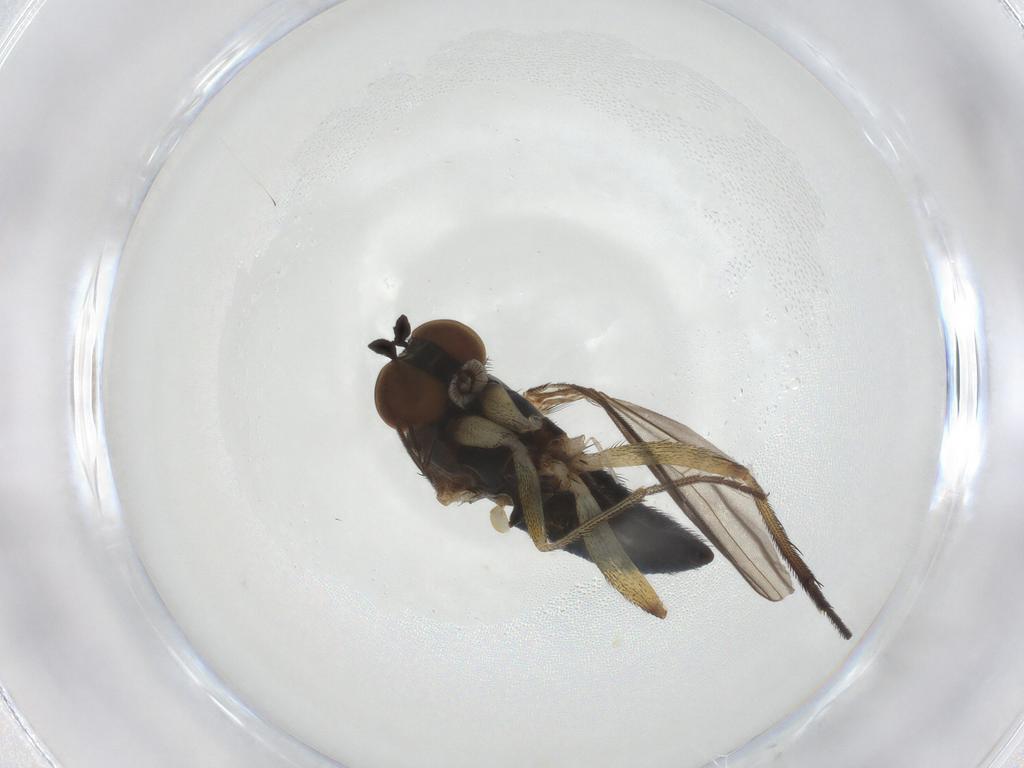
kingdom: Animalia
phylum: Arthropoda
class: Insecta
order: Diptera
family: Dolichopodidae
